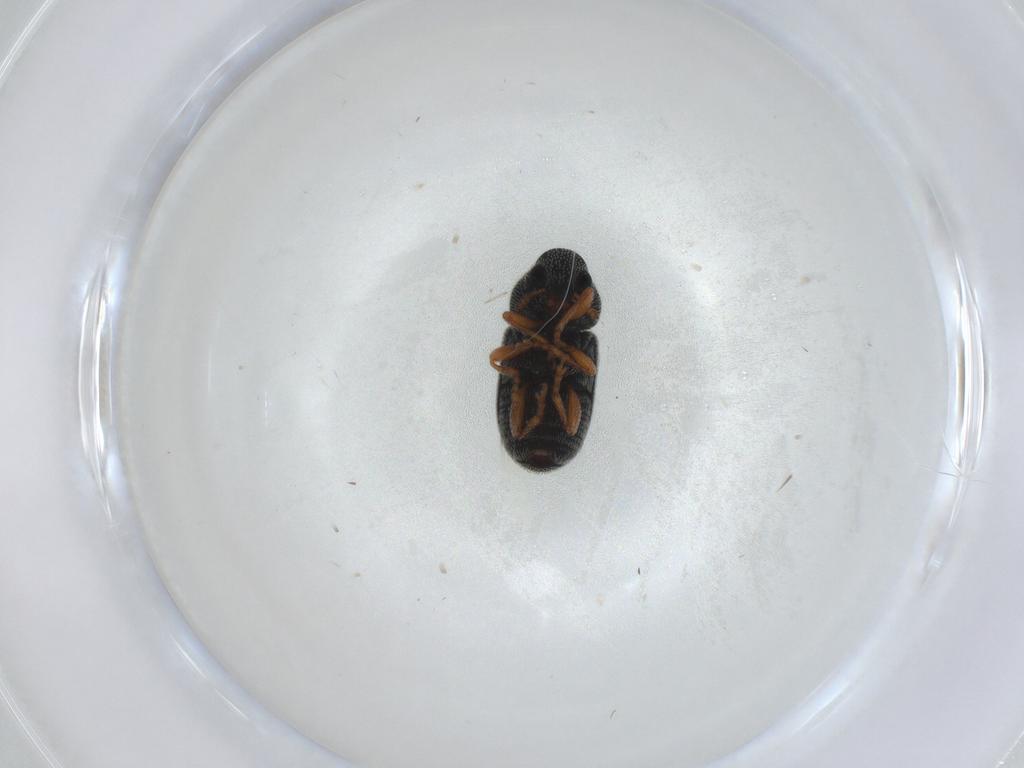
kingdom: Animalia
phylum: Arthropoda
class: Insecta
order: Coleoptera
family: Anthribidae
